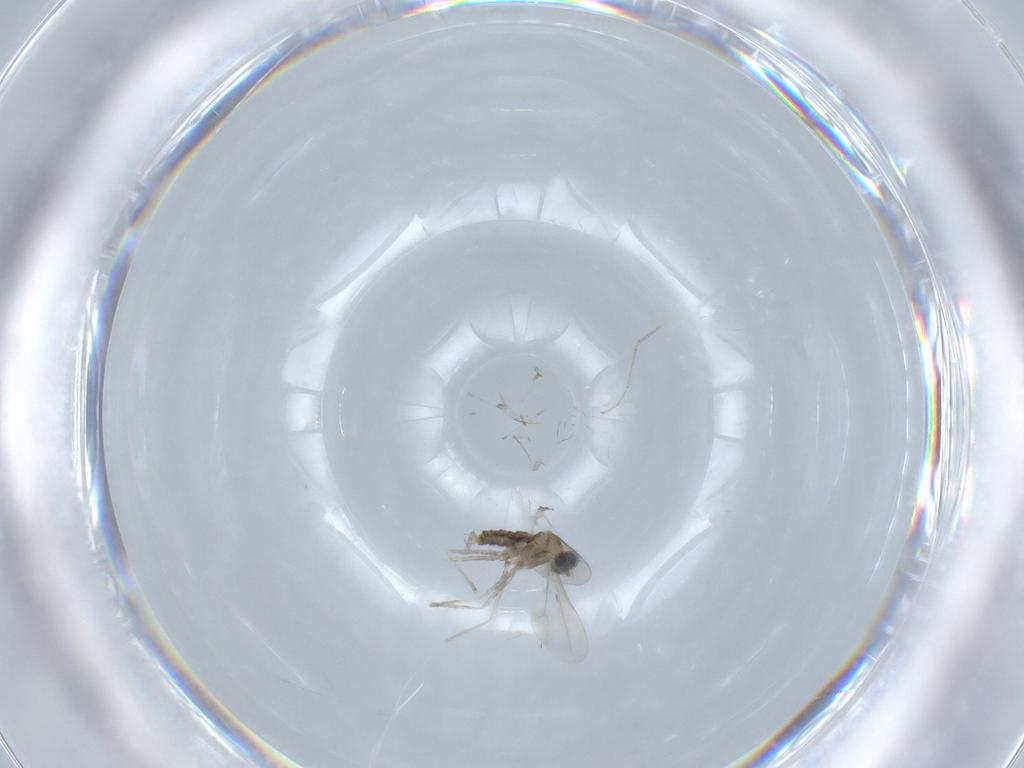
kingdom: Animalia
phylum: Arthropoda
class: Insecta
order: Diptera
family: Cecidomyiidae
